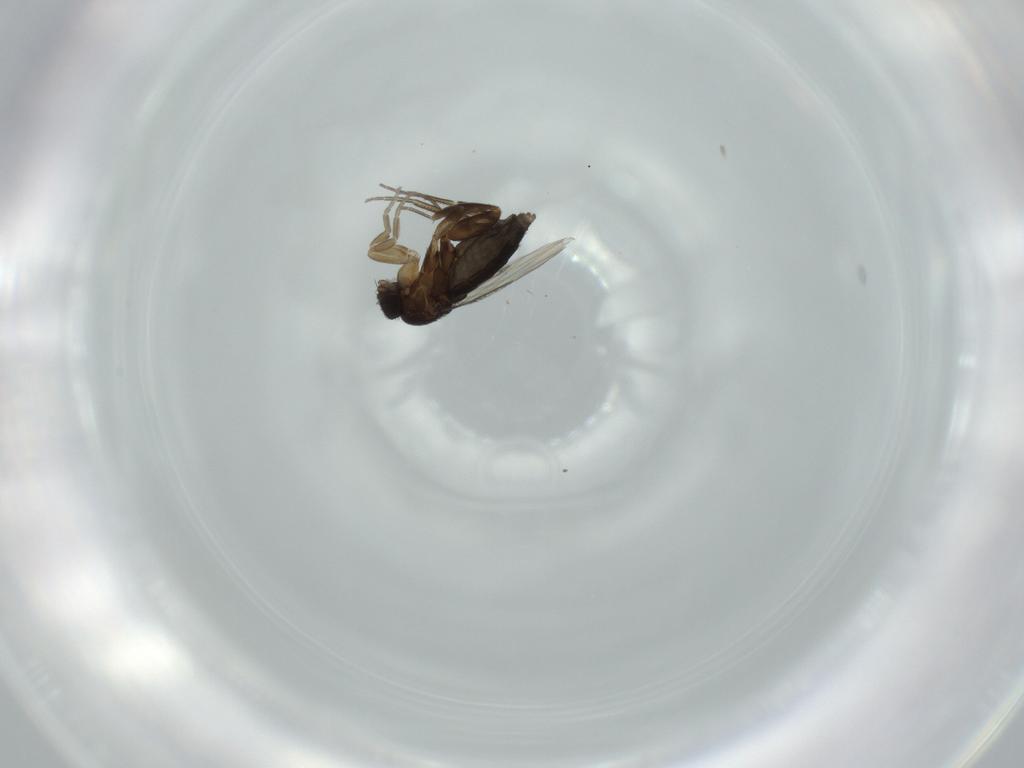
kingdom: Animalia
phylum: Arthropoda
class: Insecta
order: Diptera
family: Phoridae
